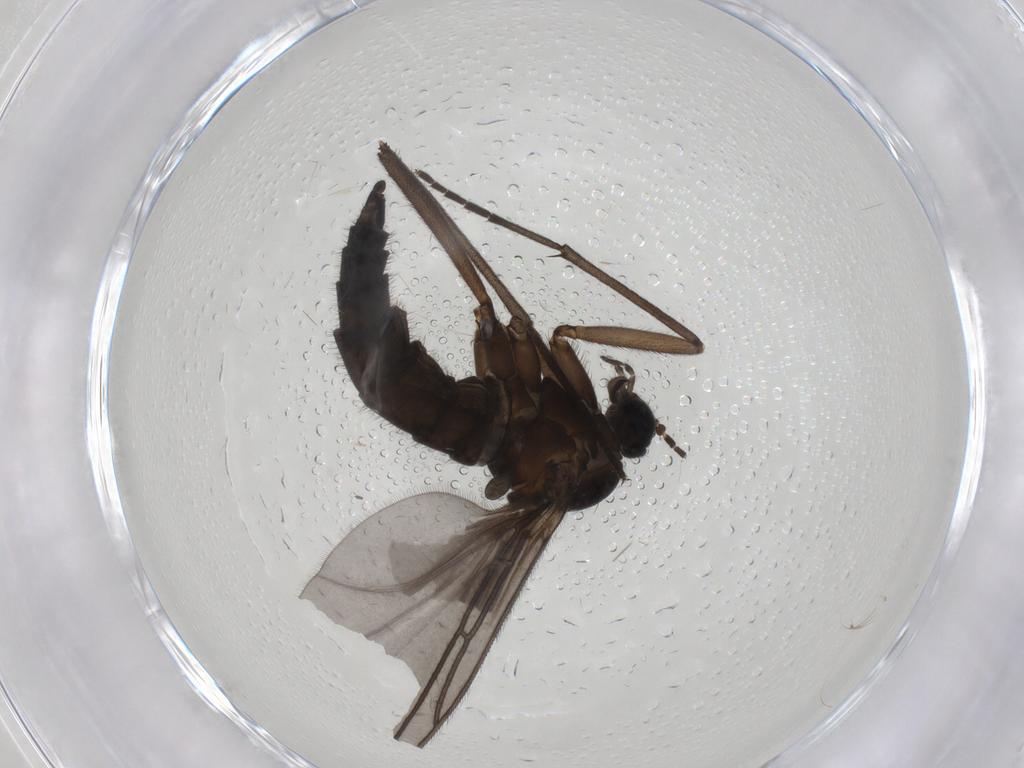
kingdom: Animalia
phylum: Arthropoda
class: Insecta
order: Diptera
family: Sciaridae
